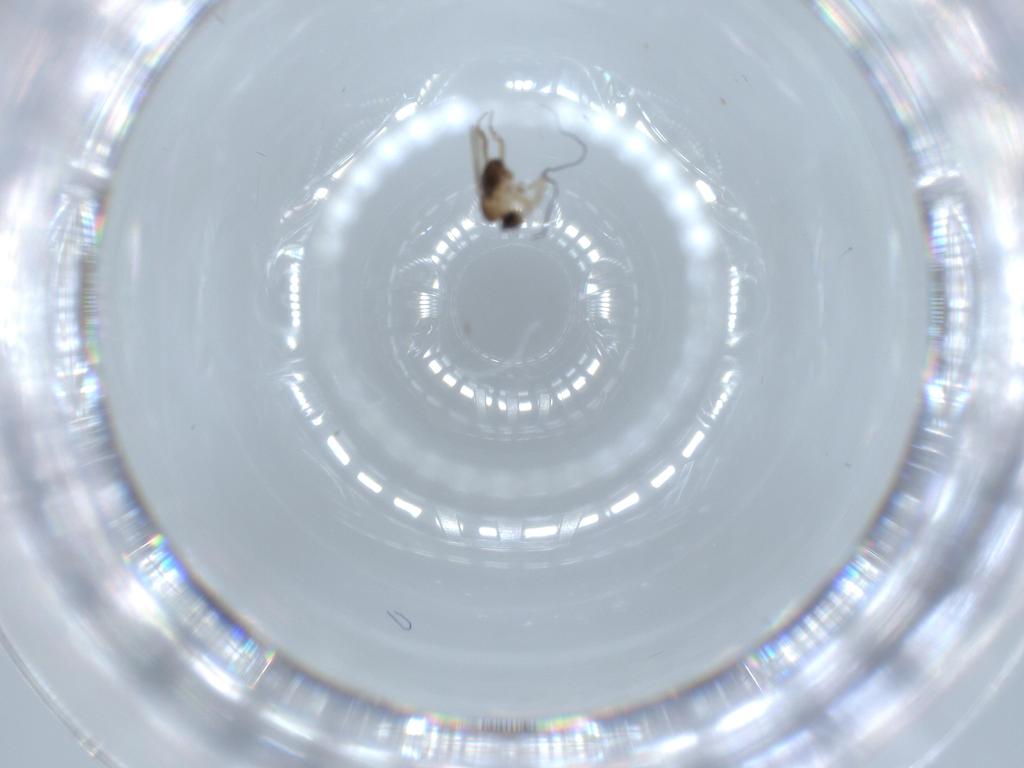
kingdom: Animalia
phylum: Arthropoda
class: Insecta
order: Diptera
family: Phoridae
